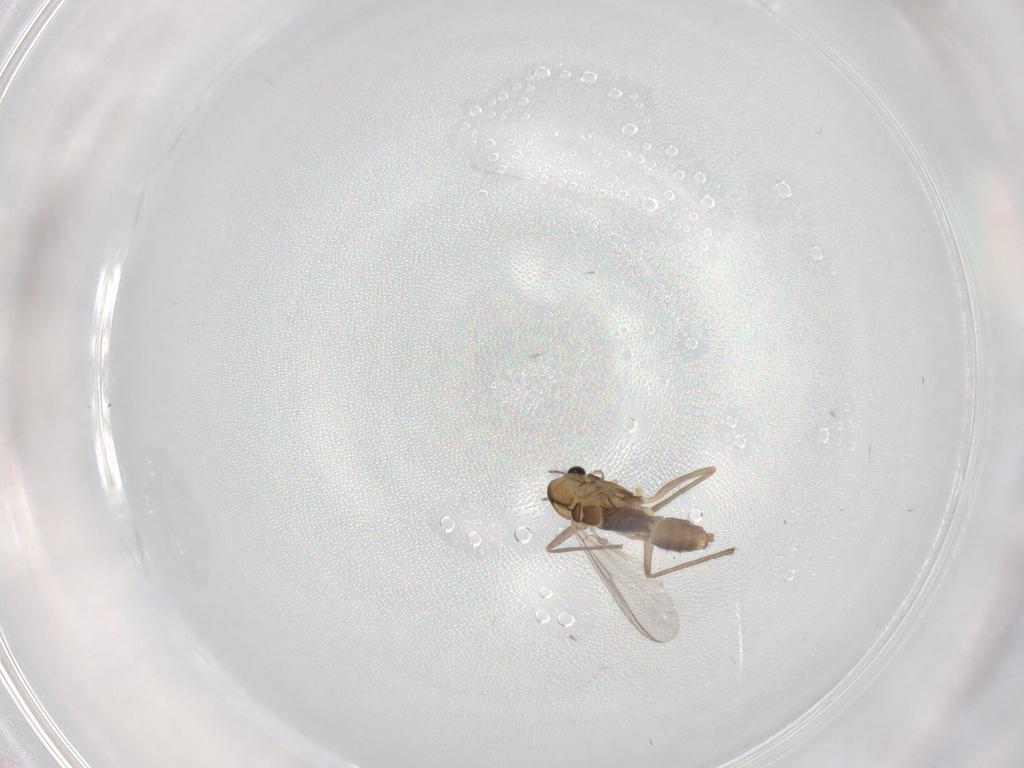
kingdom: Animalia
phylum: Arthropoda
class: Insecta
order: Diptera
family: Chironomidae
